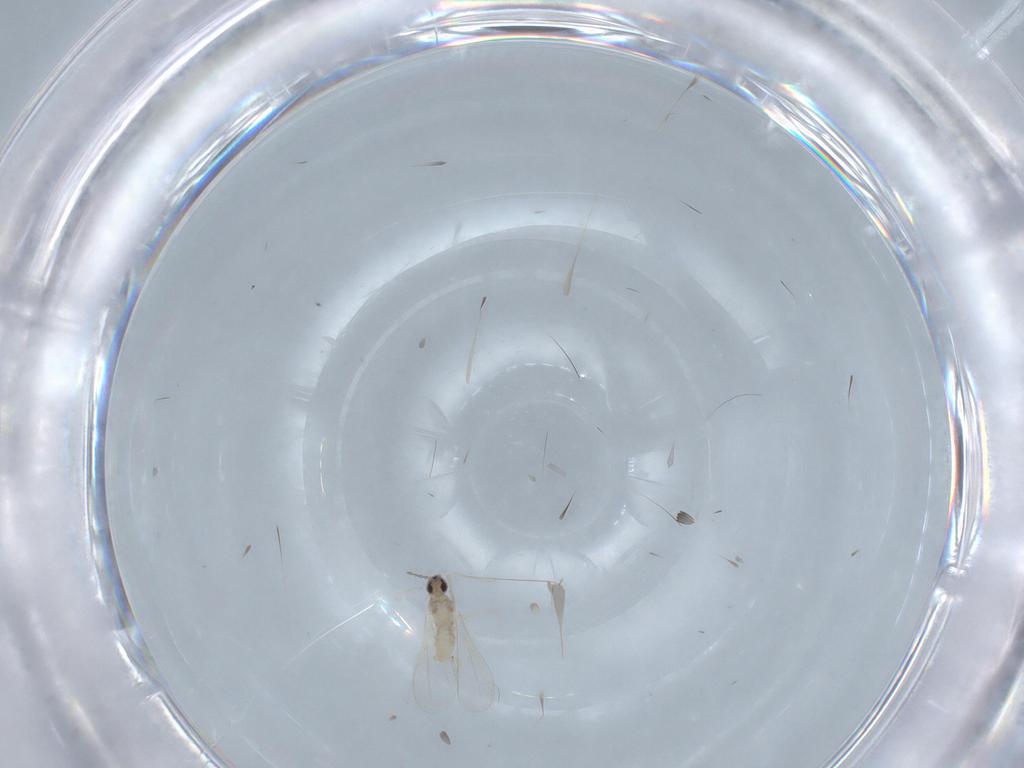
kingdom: Animalia
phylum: Arthropoda
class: Insecta
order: Diptera
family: Cecidomyiidae
